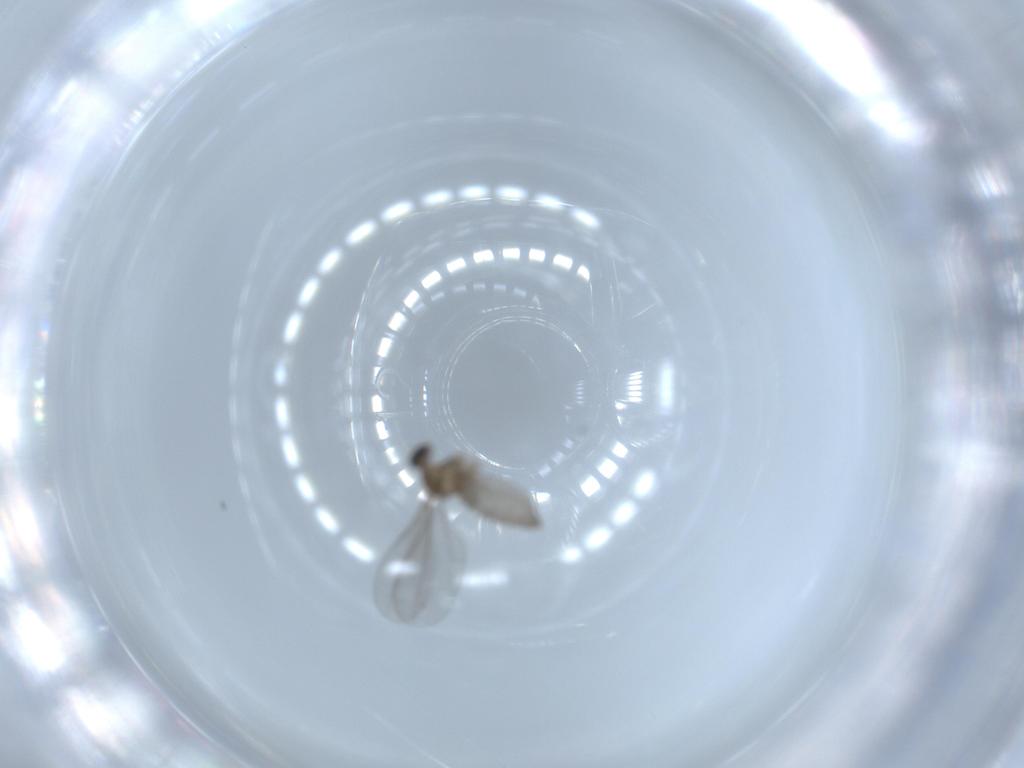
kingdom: Animalia
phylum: Arthropoda
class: Insecta
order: Diptera
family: Cecidomyiidae
